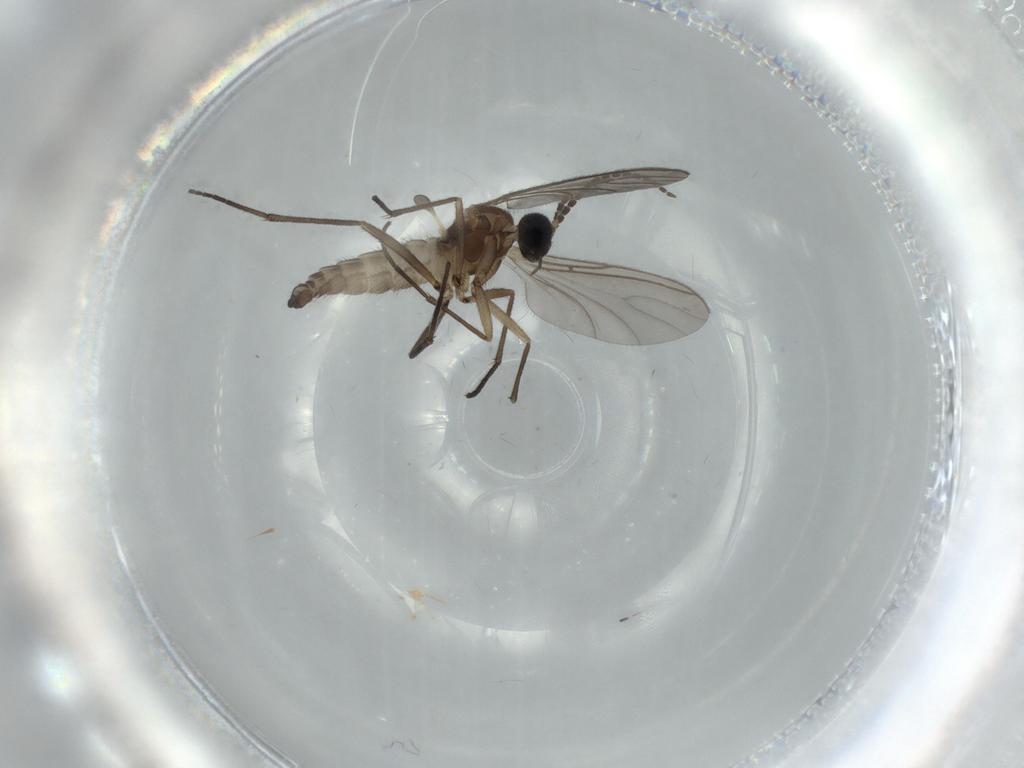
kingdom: Animalia
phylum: Arthropoda
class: Insecta
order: Diptera
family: Sciaridae
